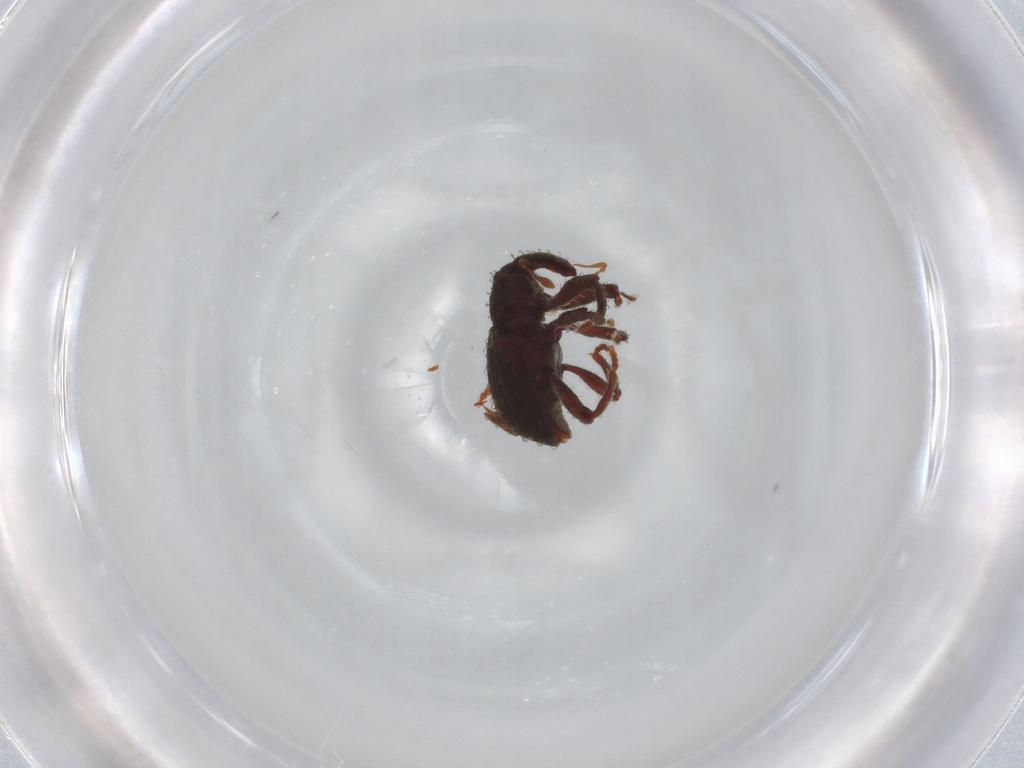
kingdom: Animalia
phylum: Arthropoda
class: Insecta
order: Coleoptera
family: Curculionidae
